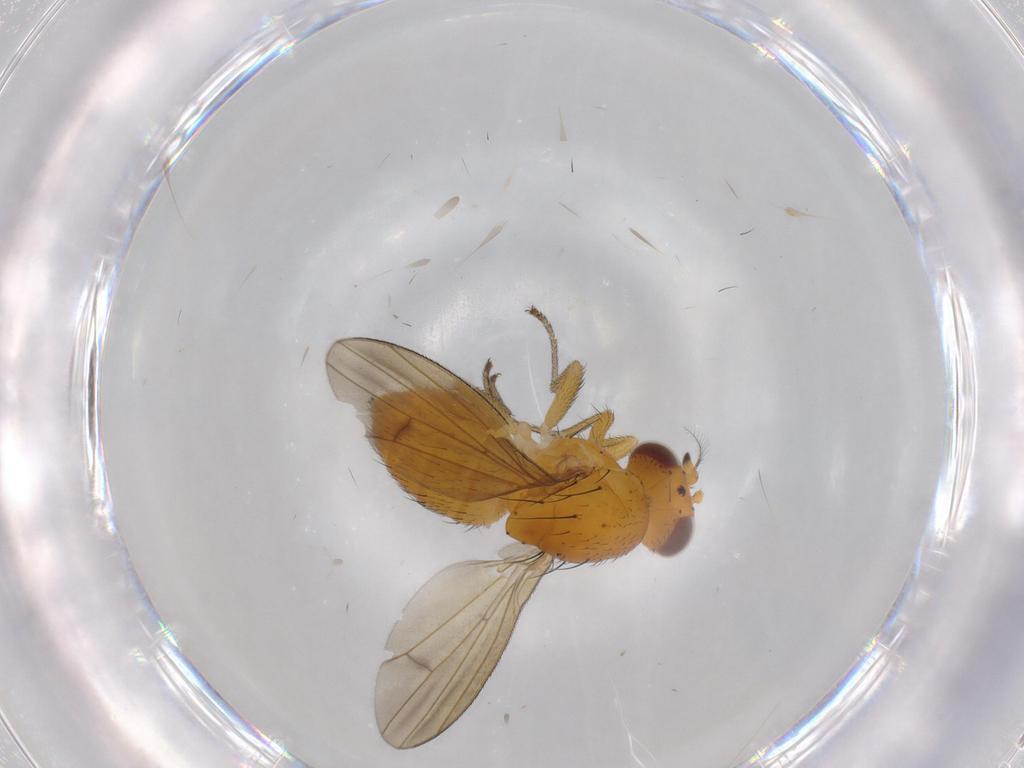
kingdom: Animalia
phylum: Arthropoda
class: Insecta
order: Diptera
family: Lauxaniidae
